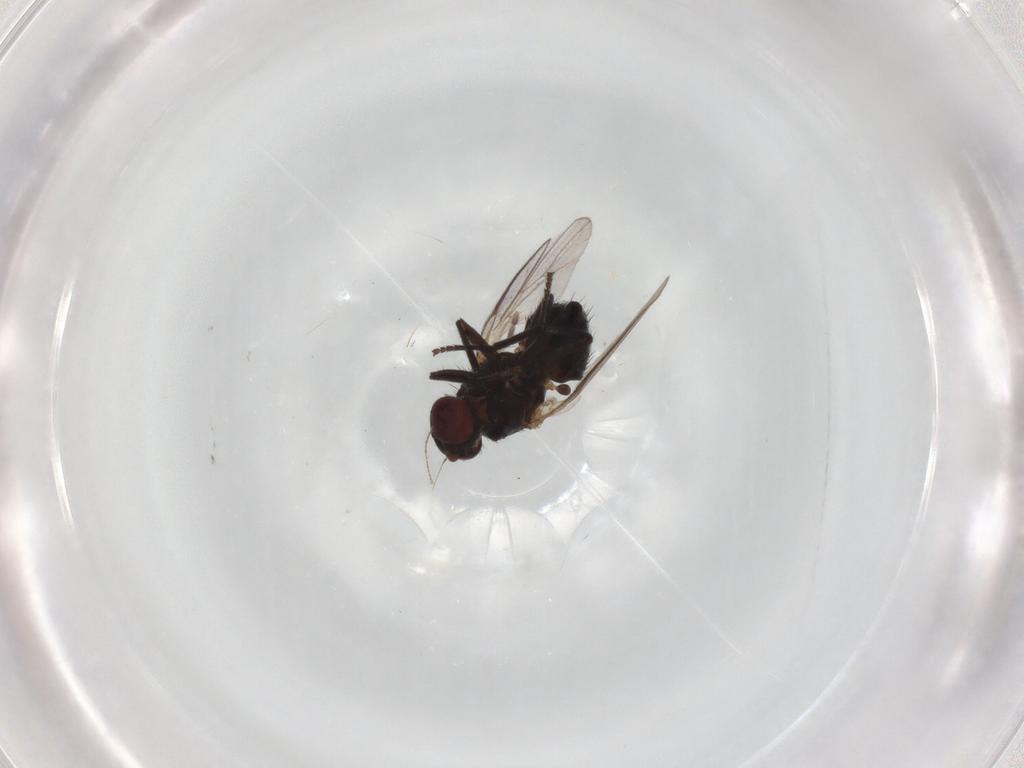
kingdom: Animalia
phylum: Arthropoda
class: Insecta
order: Diptera
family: Agromyzidae
